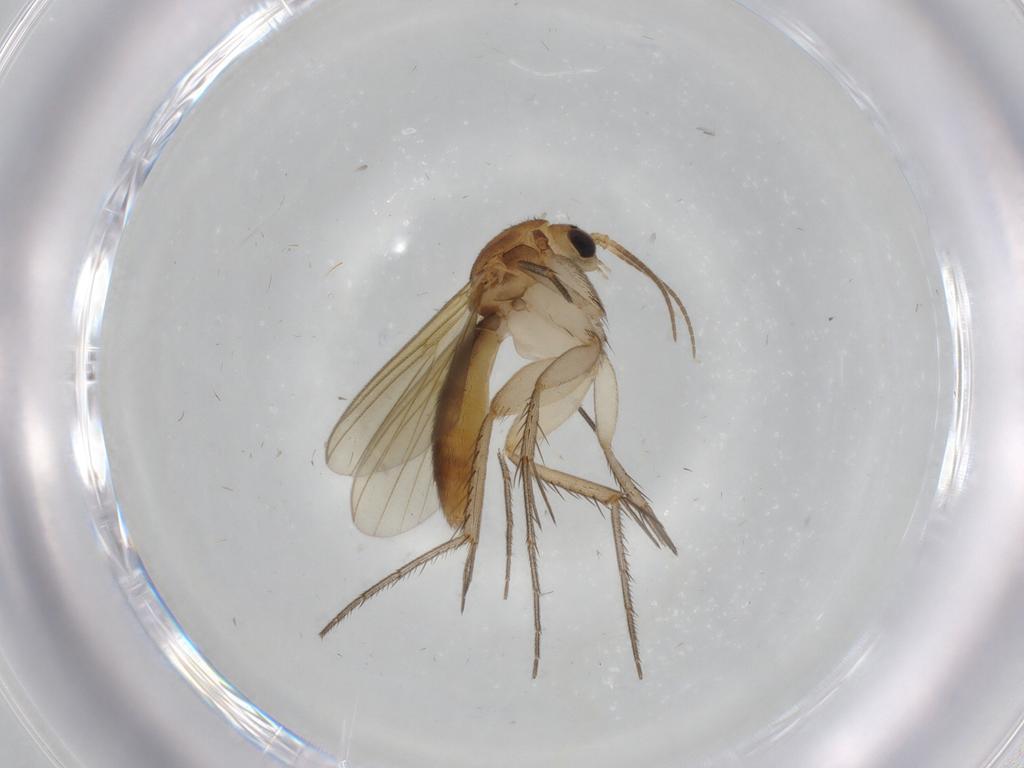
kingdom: Animalia
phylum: Arthropoda
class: Insecta
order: Diptera
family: Mycetophilidae
